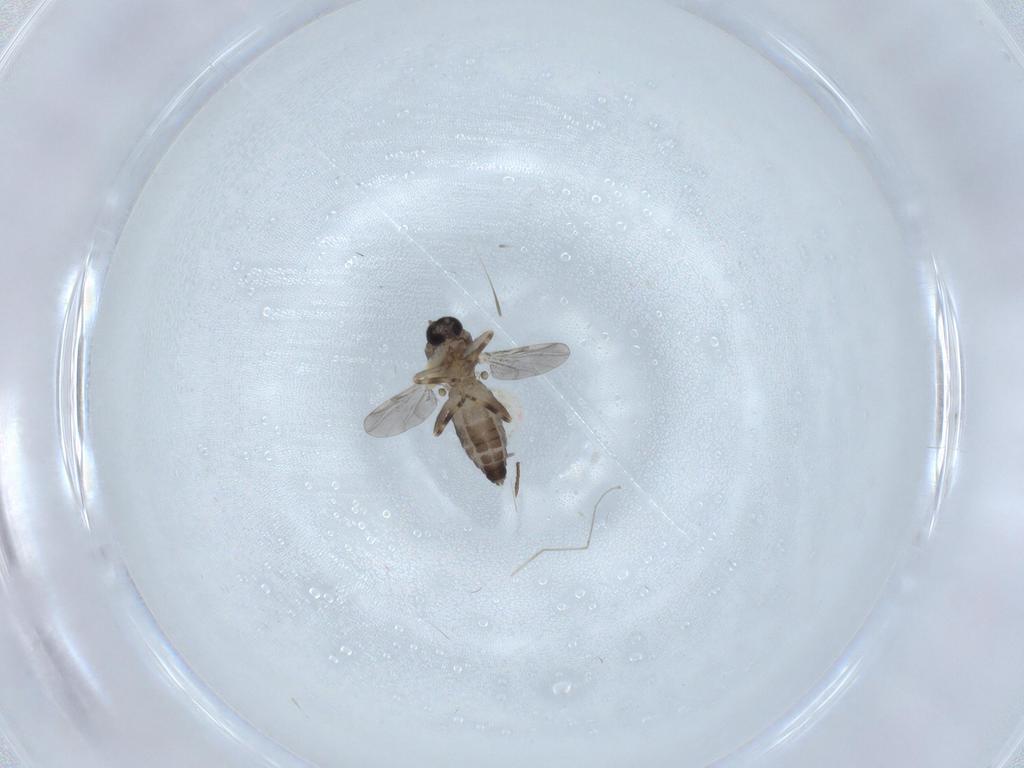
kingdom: Animalia
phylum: Arthropoda
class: Insecta
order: Diptera
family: Ceratopogonidae
